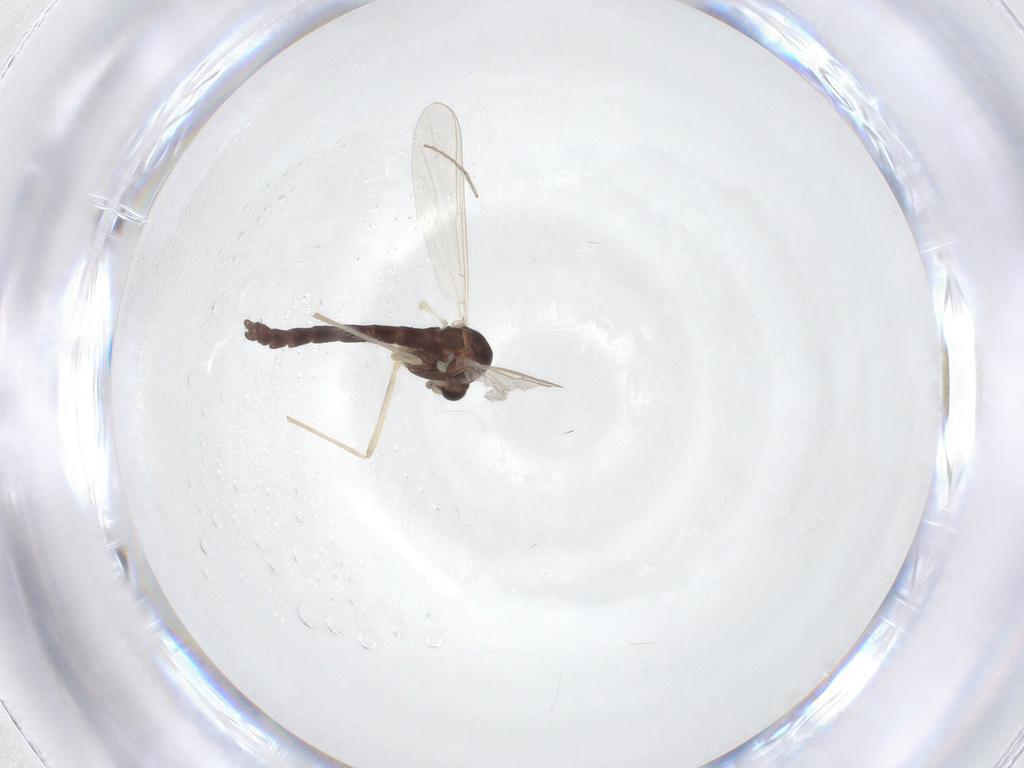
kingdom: Animalia
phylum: Arthropoda
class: Insecta
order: Diptera
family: Chironomidae
